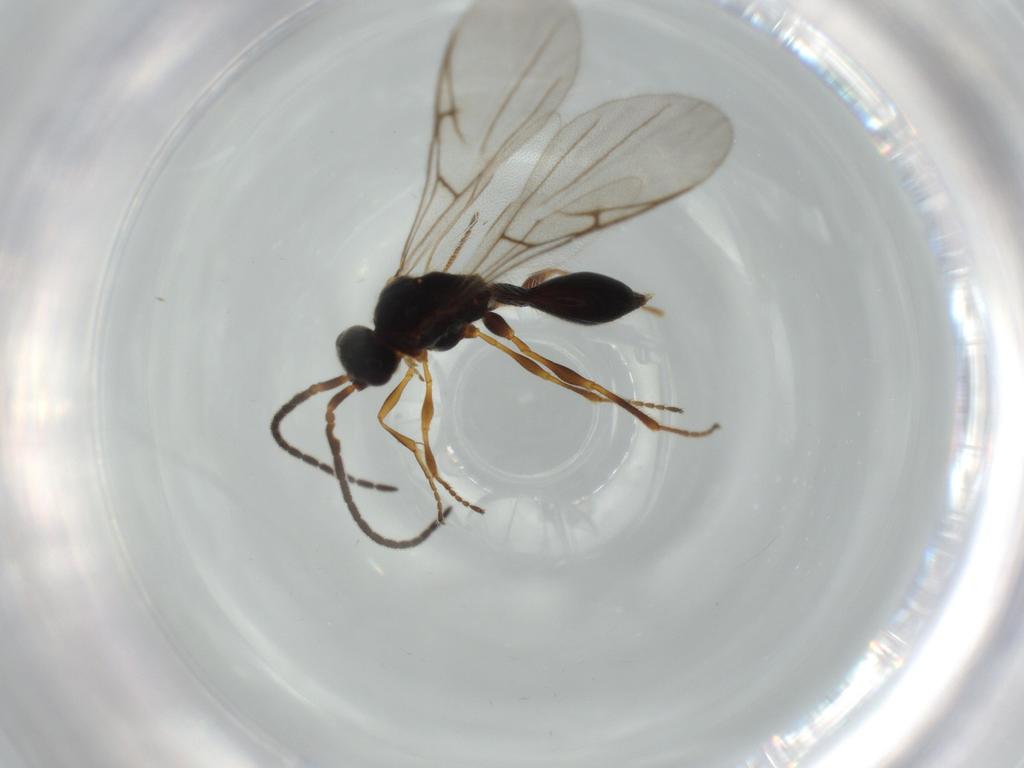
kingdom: Animalia
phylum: Arthropoda
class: Insecta
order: Hymenoptera
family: Diapriidae
